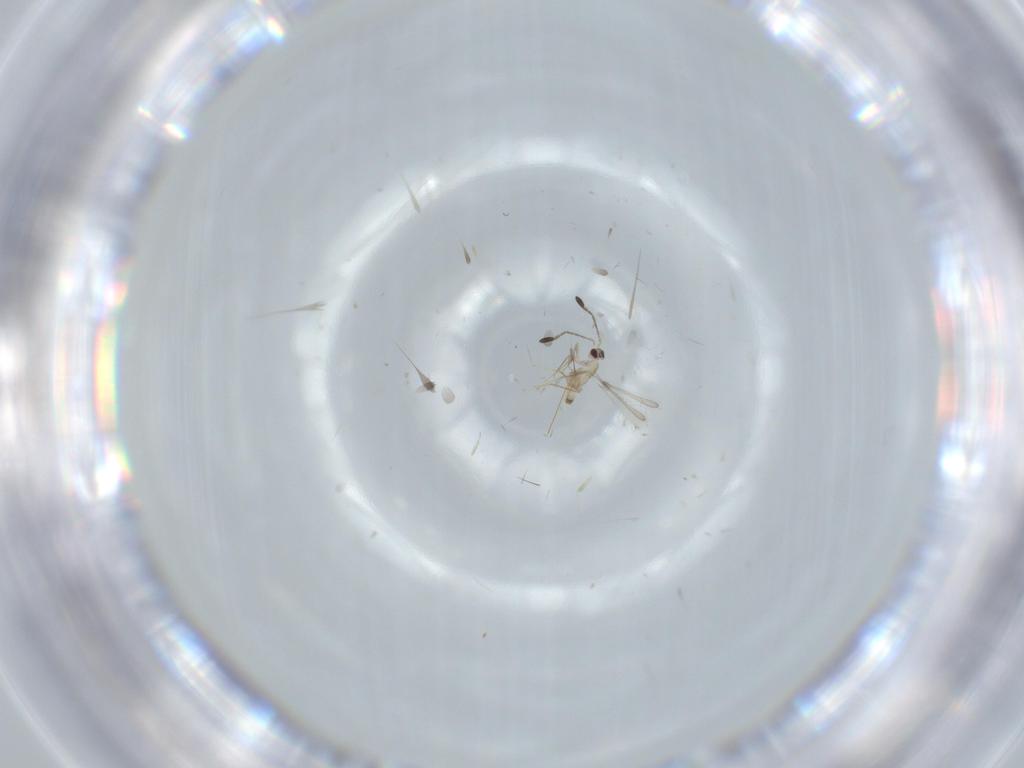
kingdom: Animalia
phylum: Arthropoda
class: Insecta
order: Hymenoptera
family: Mymaridae
